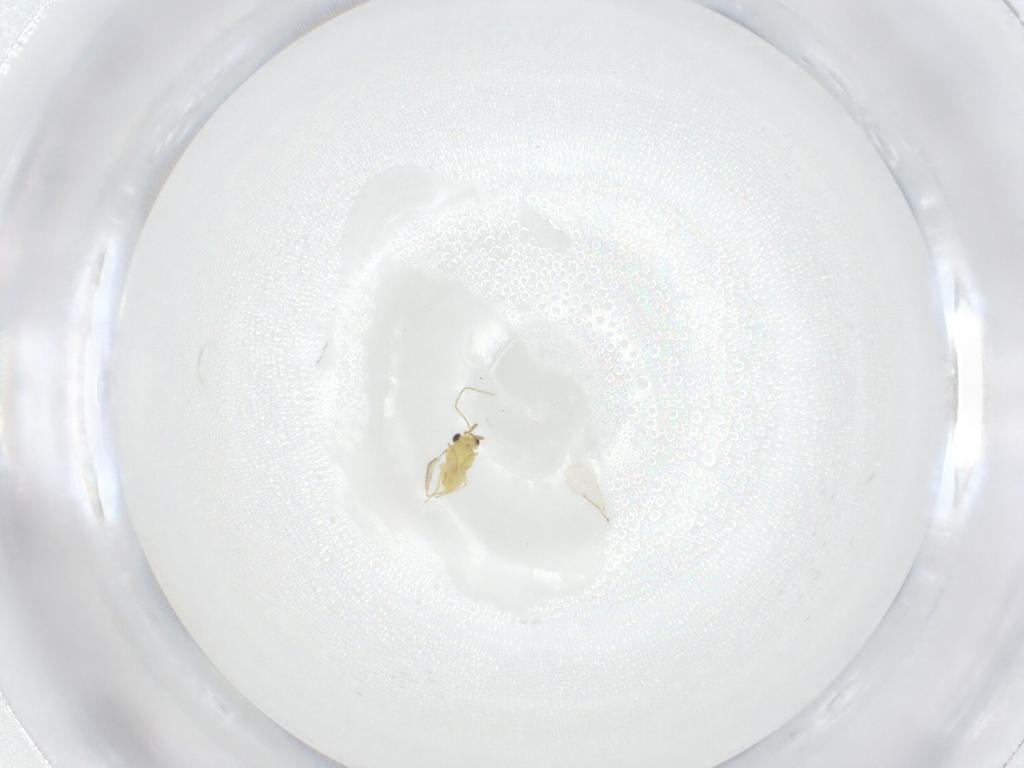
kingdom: Animalia
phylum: Arthropoda
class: Insecta
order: Hymenoptera
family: Aphelinidae
